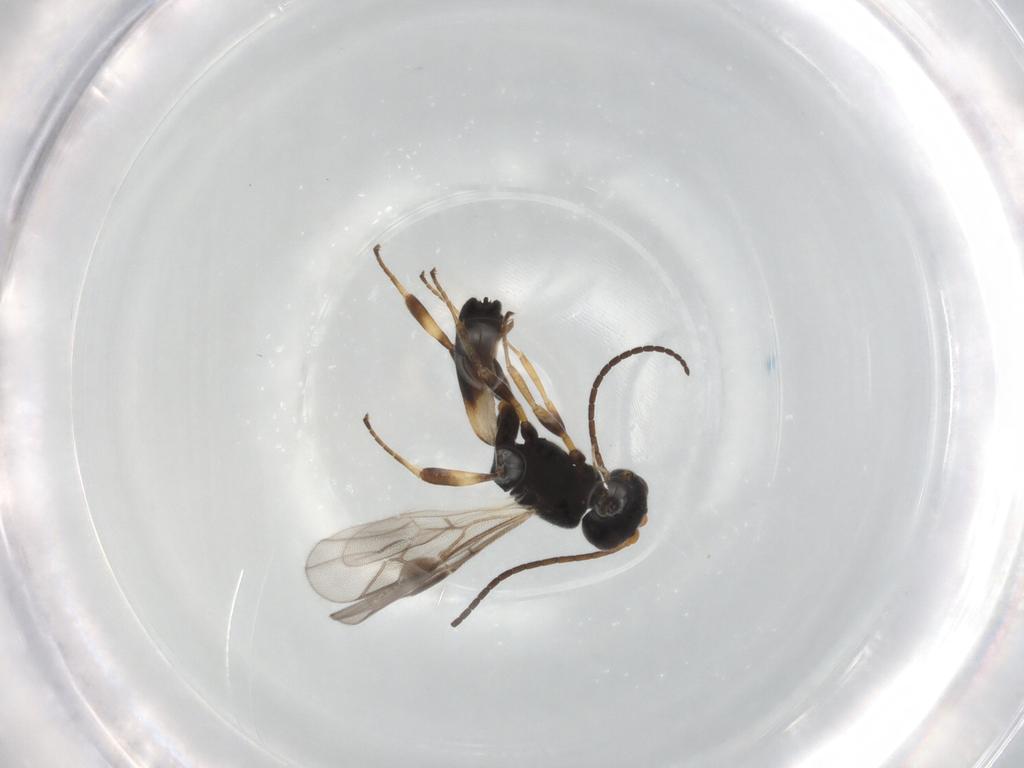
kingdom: Animalia
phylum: Arthropoda
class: Insecta
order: Hymenoptera
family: Braconidae
